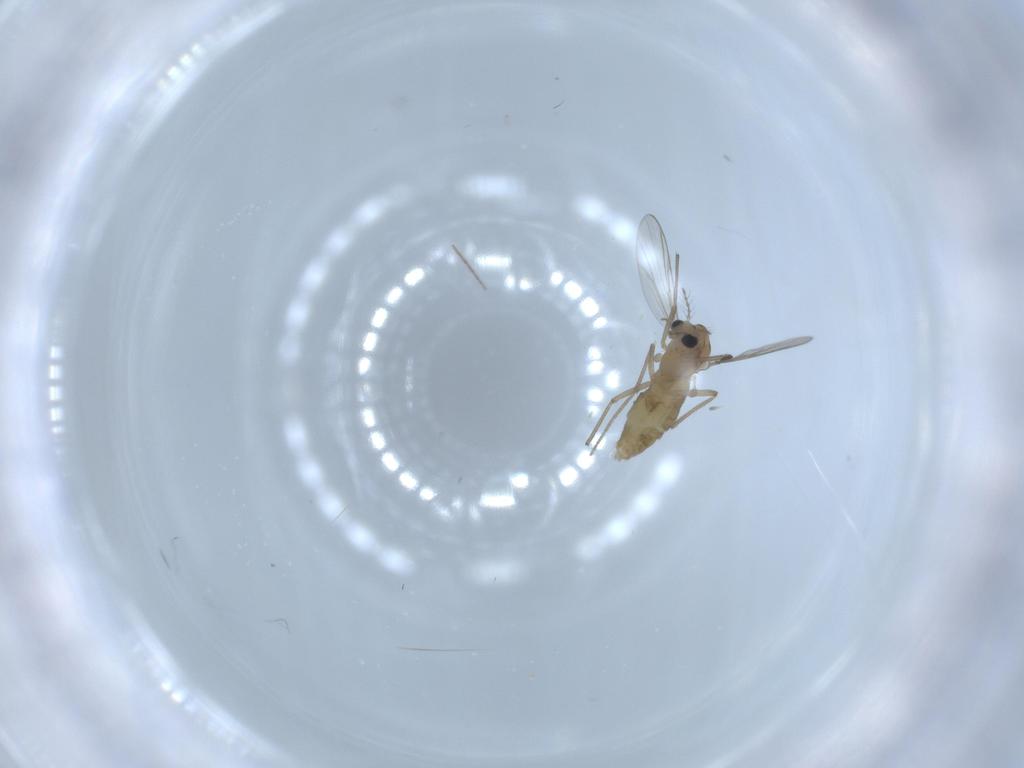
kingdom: Animalia
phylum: Arthropoda
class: Insecta
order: Diptera
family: Chironomidae
